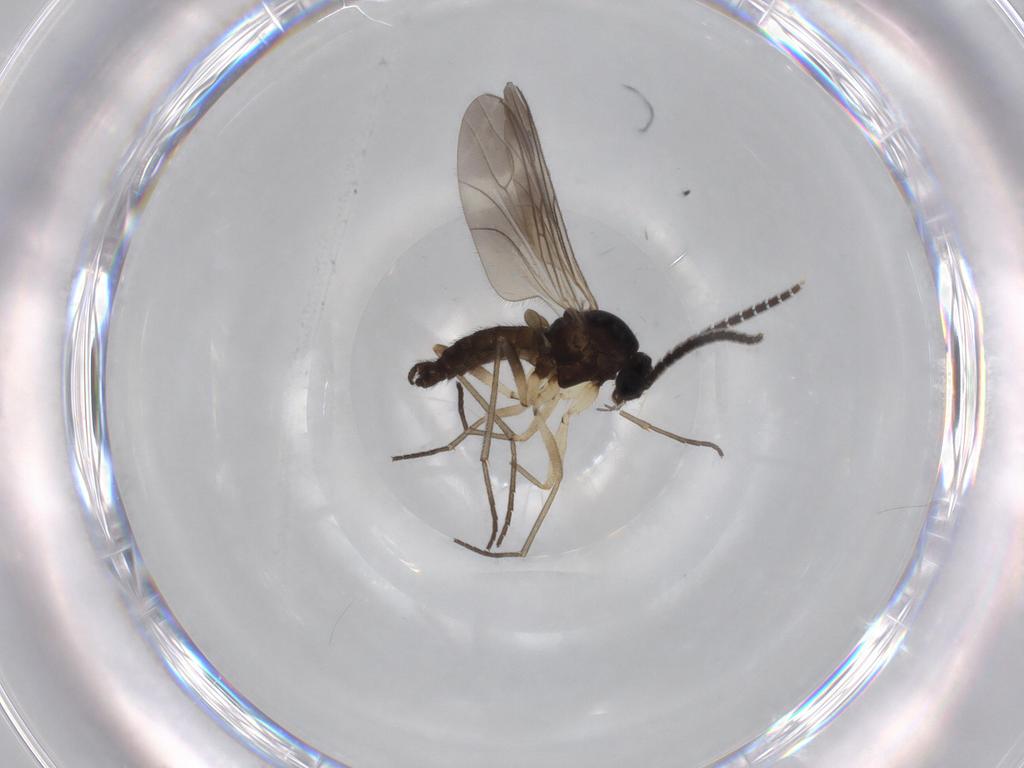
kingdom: Animalia
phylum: Arthropoda
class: Insecta
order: Diptera
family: Sciaridae
